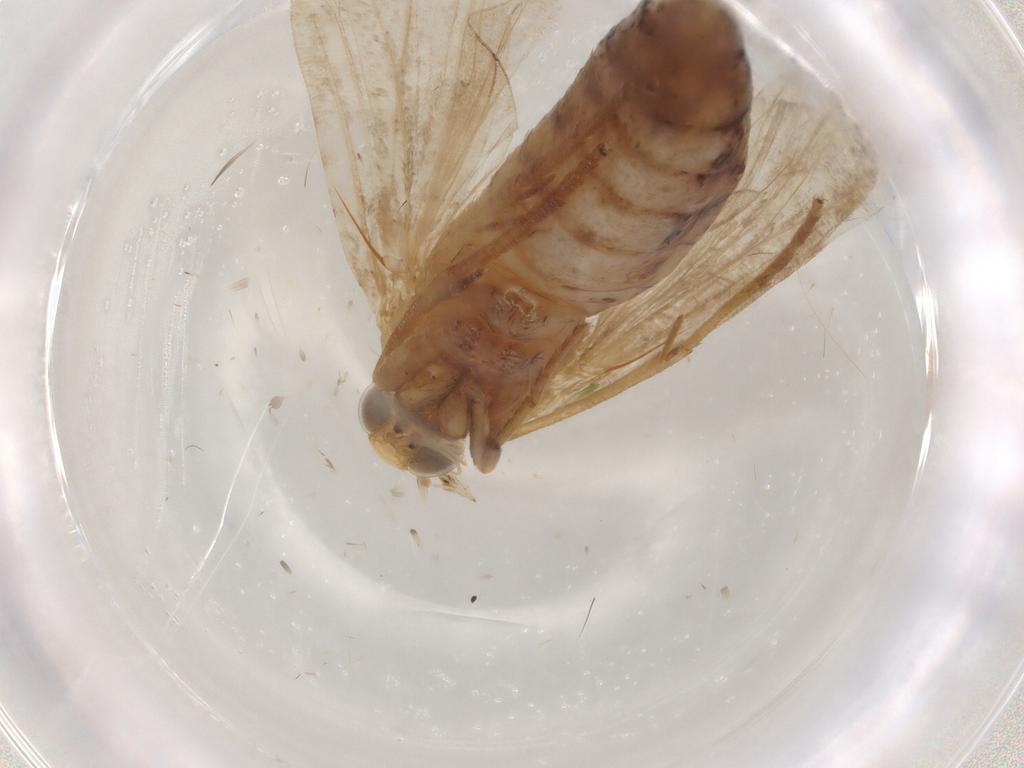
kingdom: Animalia
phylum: Arthropoda
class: Insecta
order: Lepidoptera
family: Pyralidae
